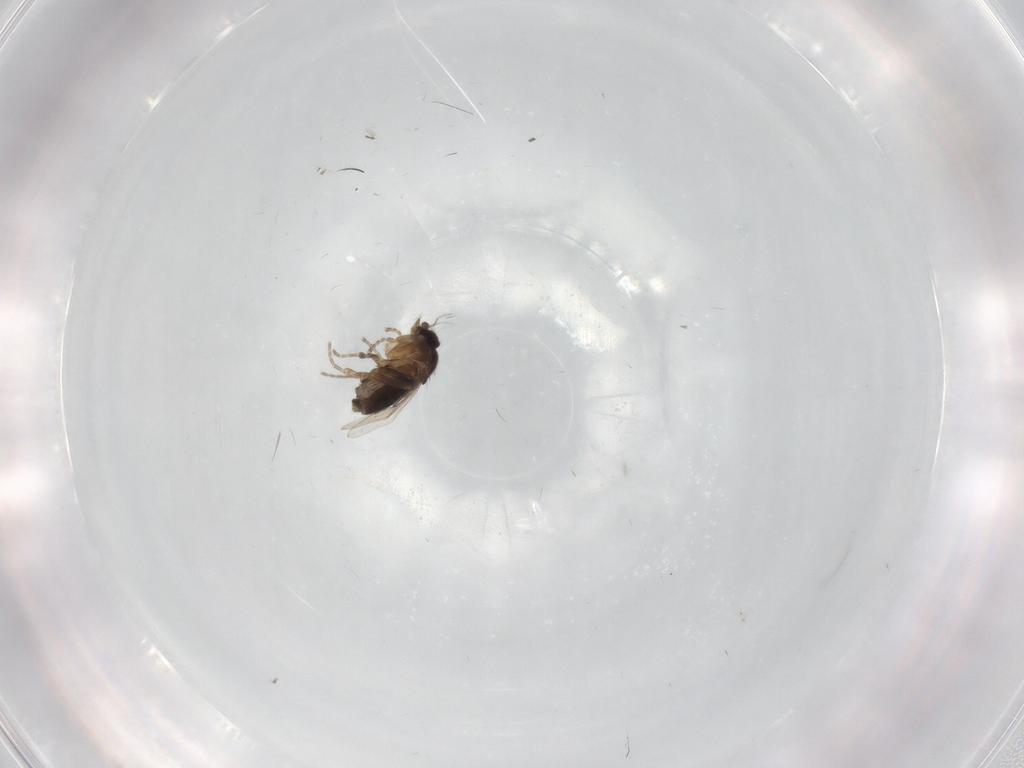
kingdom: Animalia
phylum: Arthropoda
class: Insecta
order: Diptera
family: Phoridae
